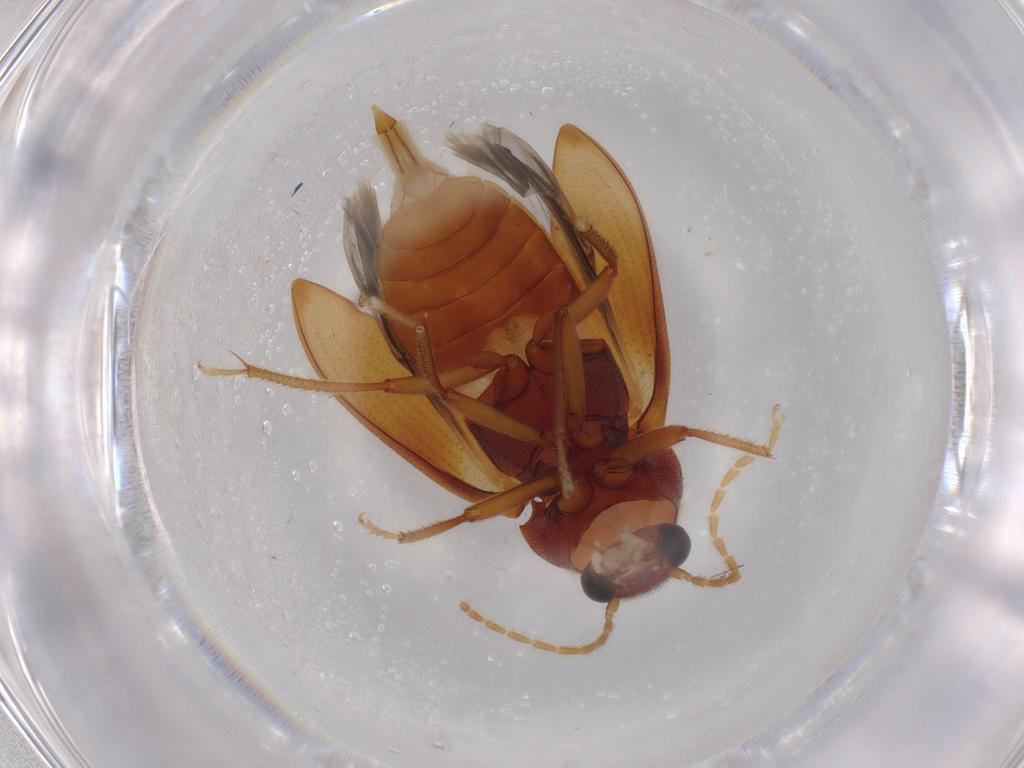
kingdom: Animalia
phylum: Arthropoda
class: Insecta
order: Coleoptera
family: Ptilodactylidae
